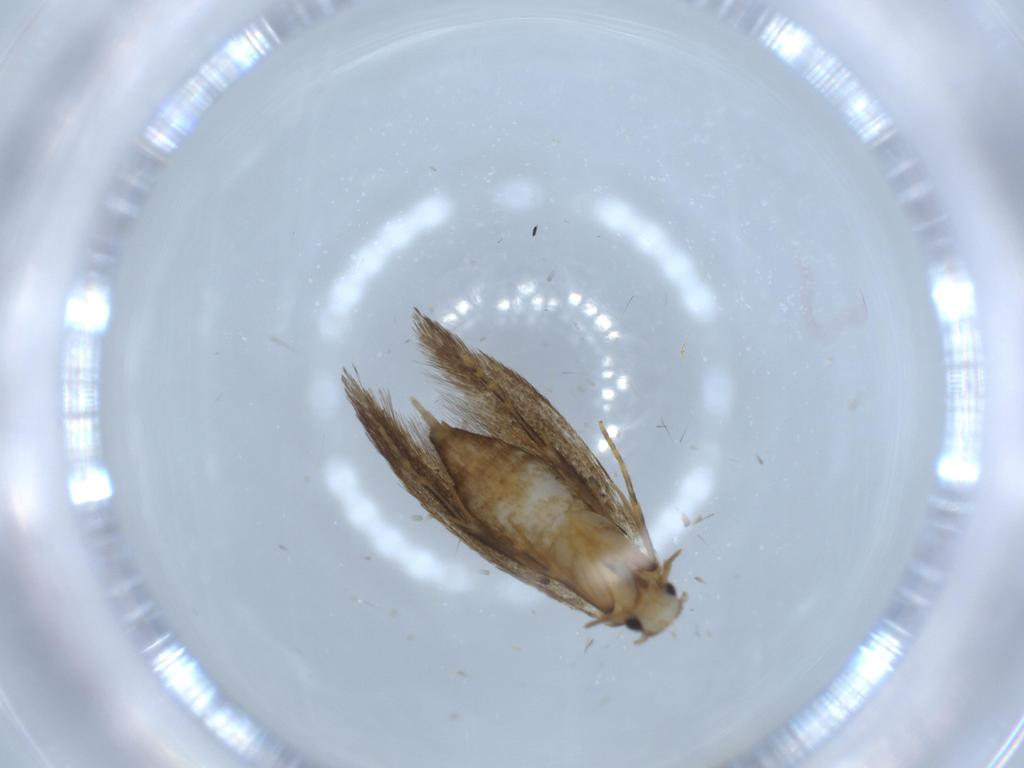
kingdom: Animalia
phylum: Arthropoda
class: Insecta
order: Lepidoptera
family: Tineidae
